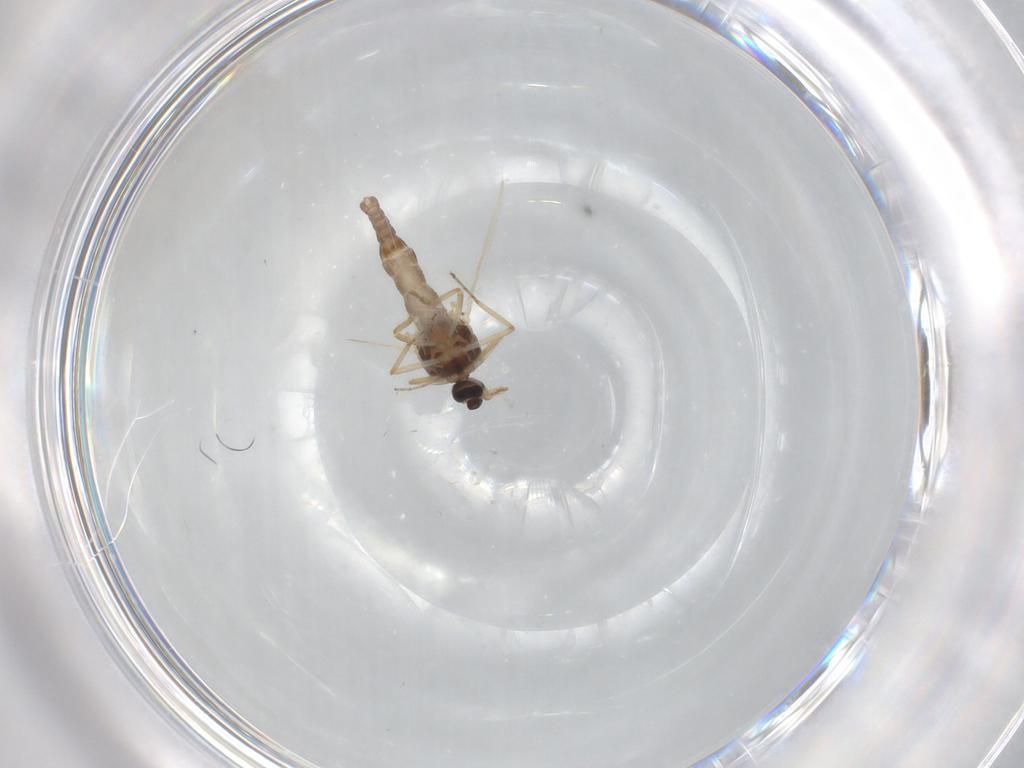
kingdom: Animalia
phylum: Arthropoda
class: Insecta
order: Diptera
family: Ceratopogonidae
